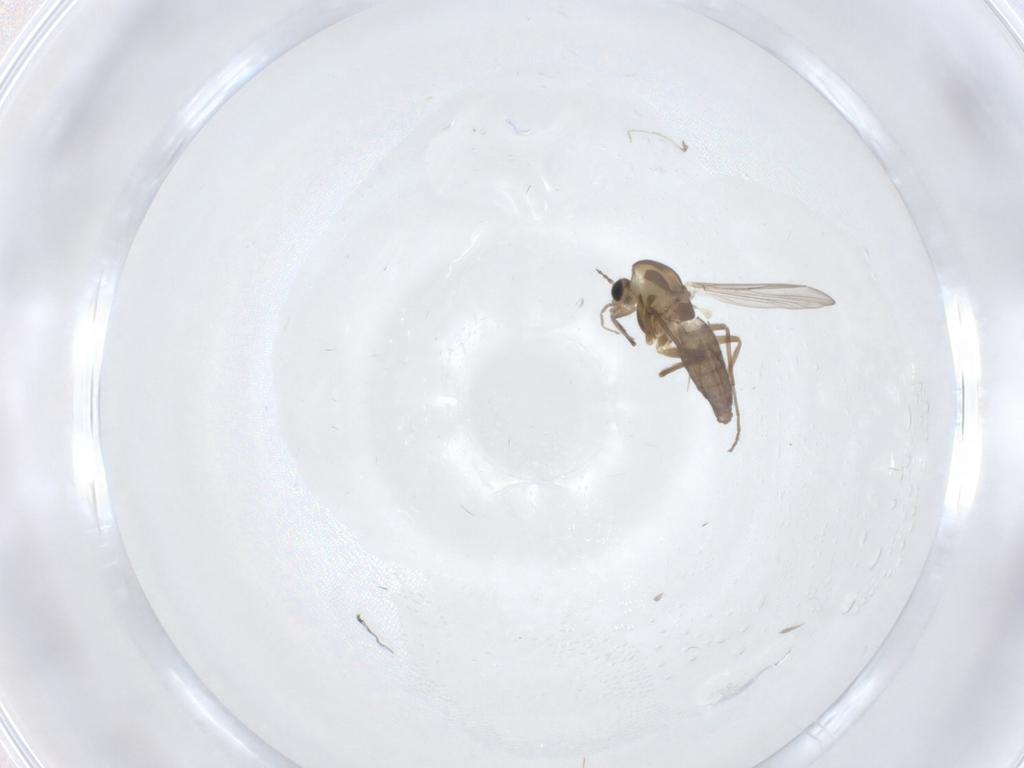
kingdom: Animalia
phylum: Arthropoda
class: Insecta
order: Diptera
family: Chironomidae
